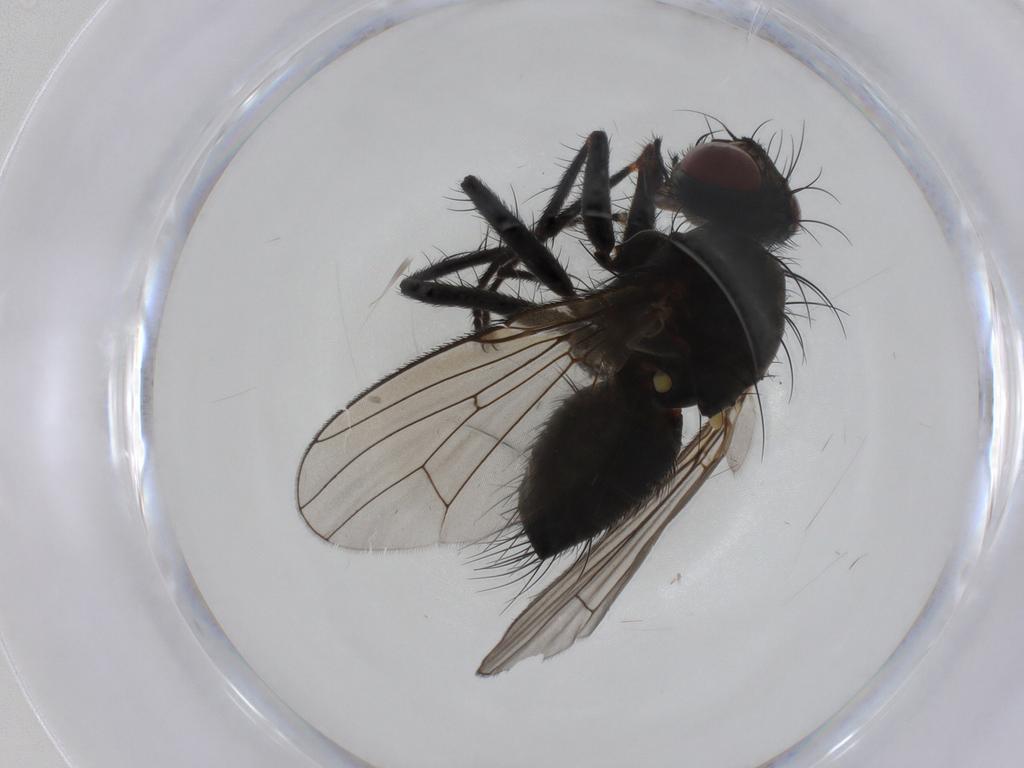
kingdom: Animalia
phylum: Arthropoda
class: Insecta
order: Diptera
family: Muscidae
